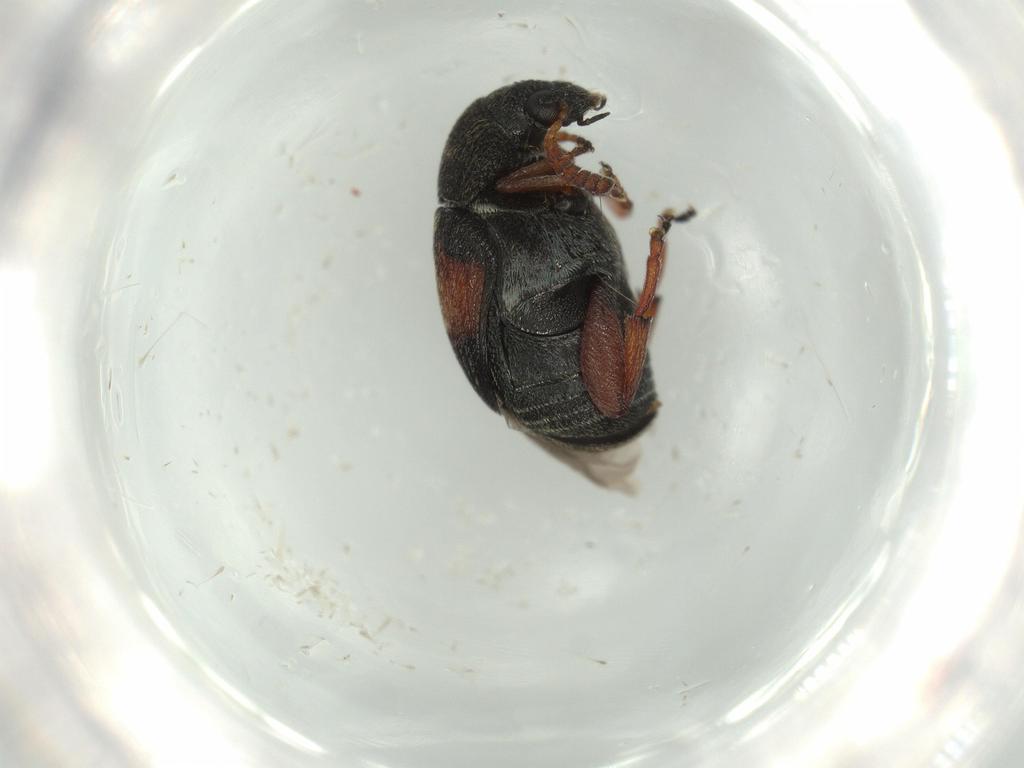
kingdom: Animalia
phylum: Arthropoda
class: Insecta
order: Coleoptera
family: Chrysomelidae
